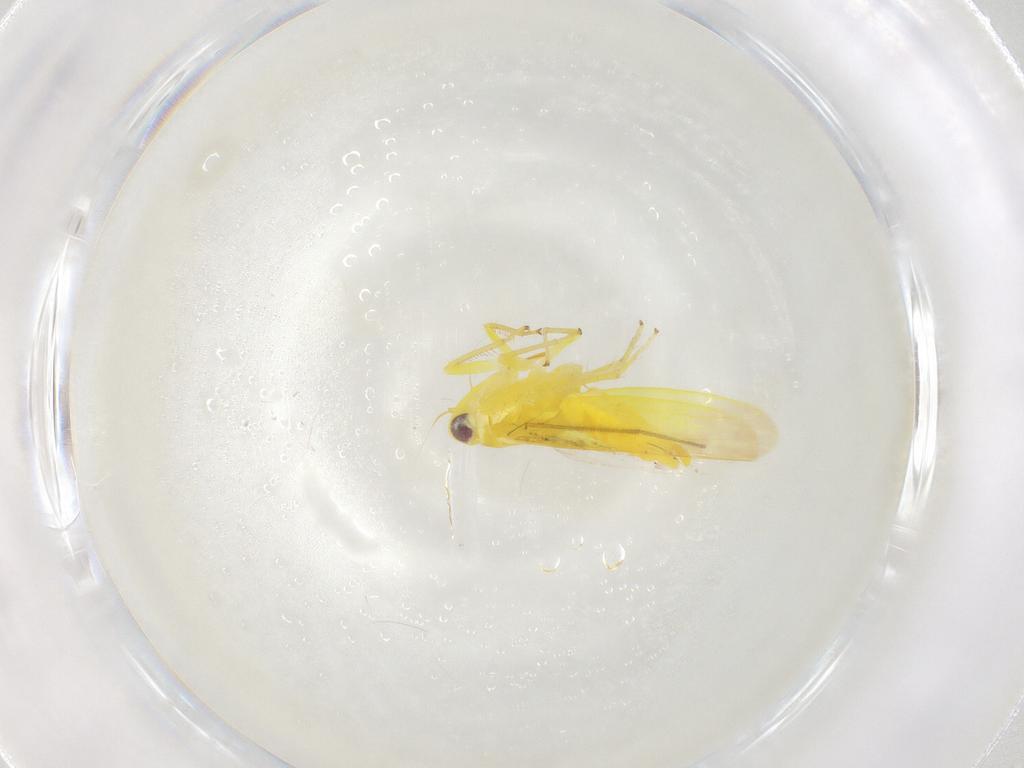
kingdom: Animalia
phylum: Arthropoda
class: Insecta
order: Hemiptera
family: Cicadellidae
